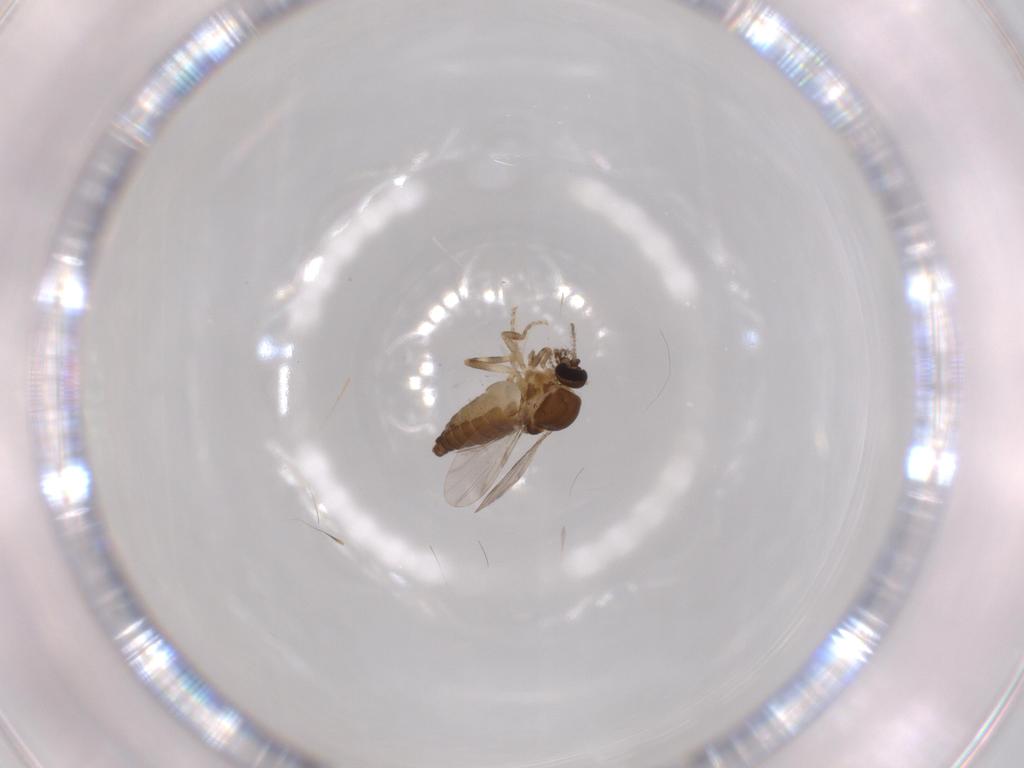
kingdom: Animalia
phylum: Arthropoda
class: Insecta
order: Diptera
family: Ceratopogonidae
